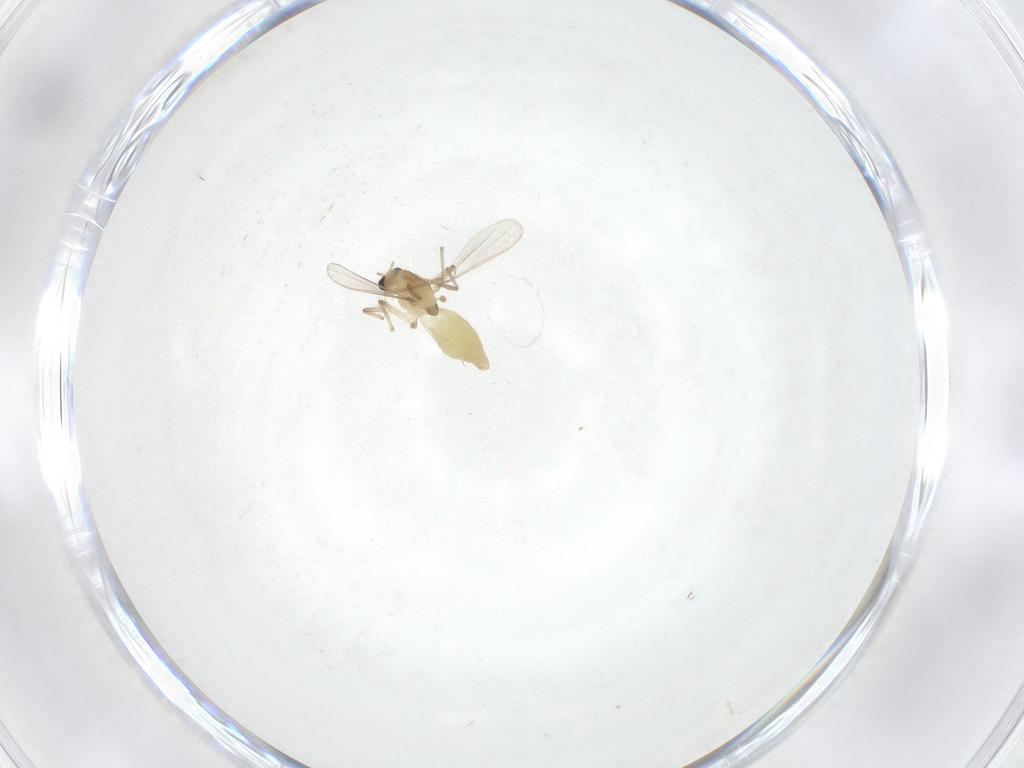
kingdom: Animalia
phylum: Arthropoda
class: Insecta
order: Diptera
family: Chironomidae
